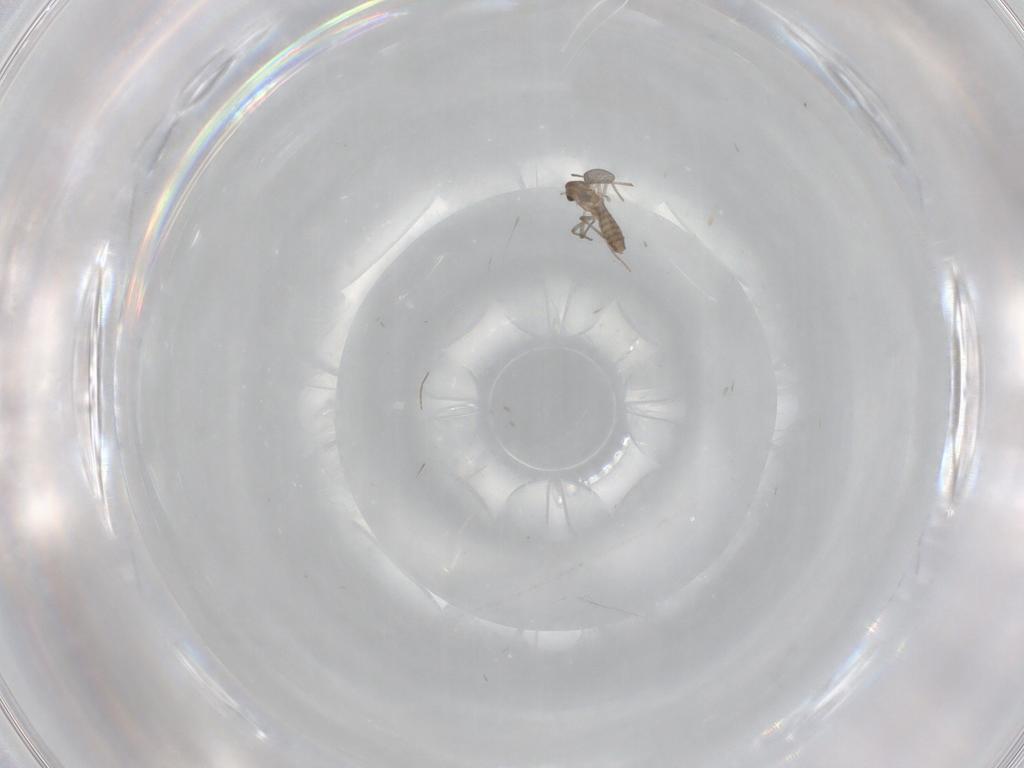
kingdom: Animalia
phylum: Arthropoda
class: Insecta
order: Diptera
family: Chironomidae
